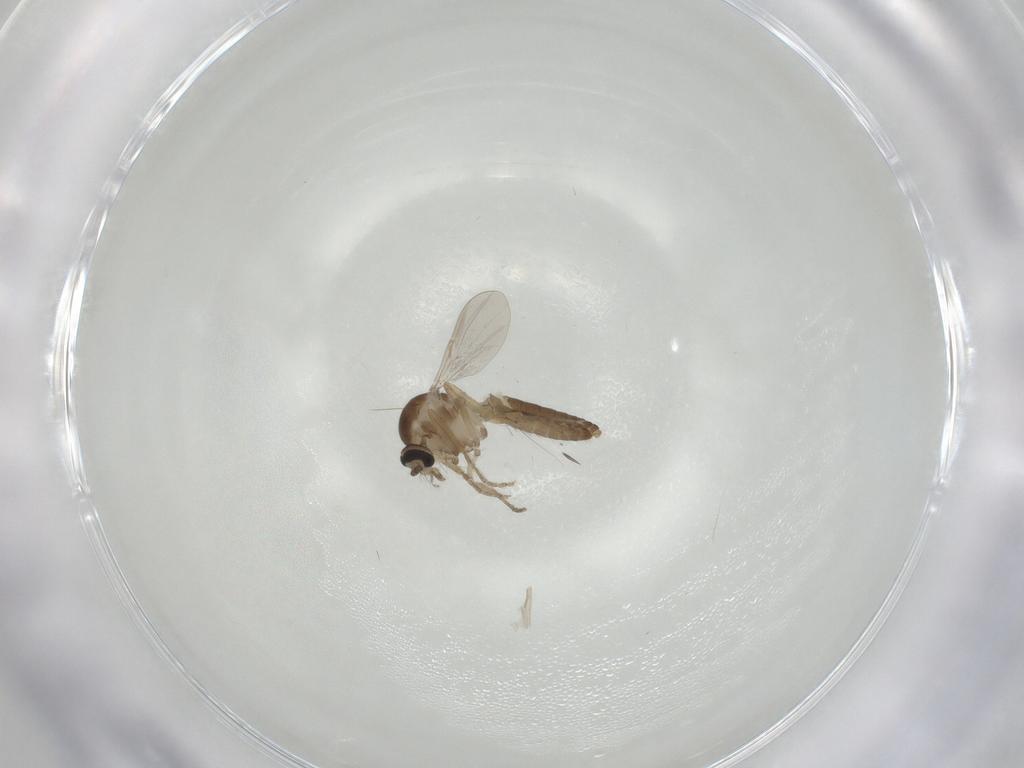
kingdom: Animalia
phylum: Arthropoda
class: Insecta
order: Diptera
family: Ceratopogonidae
